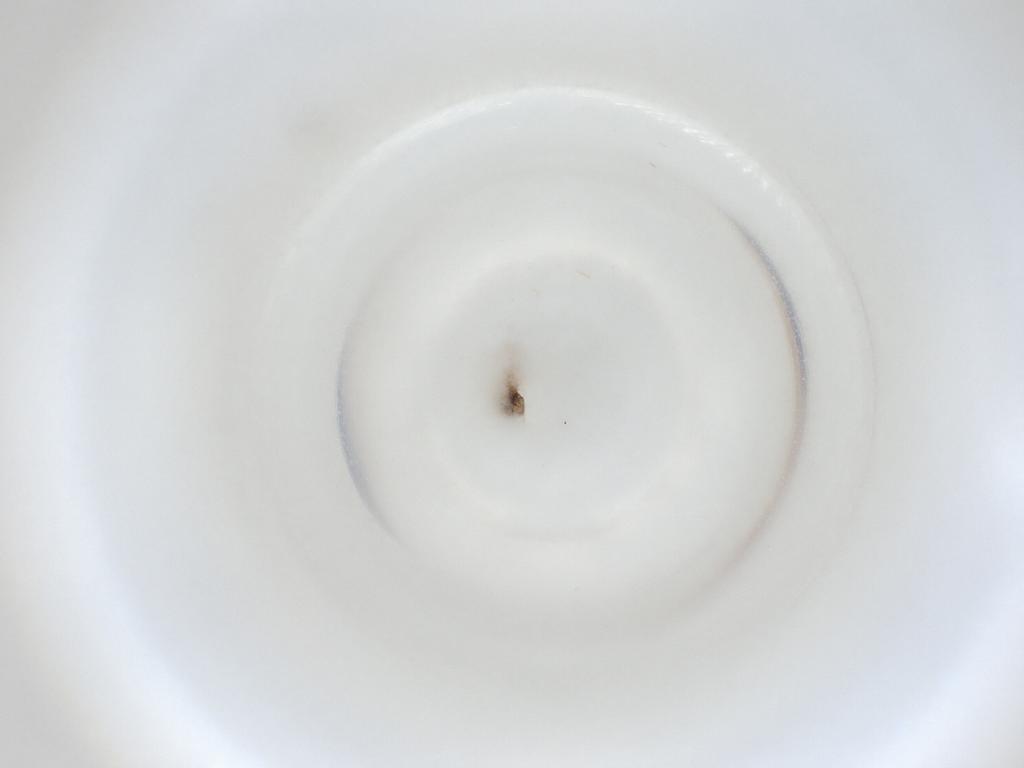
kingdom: Animalia
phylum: Arthropoda
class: Insecta
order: Diptera
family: Cecidomyiidae
